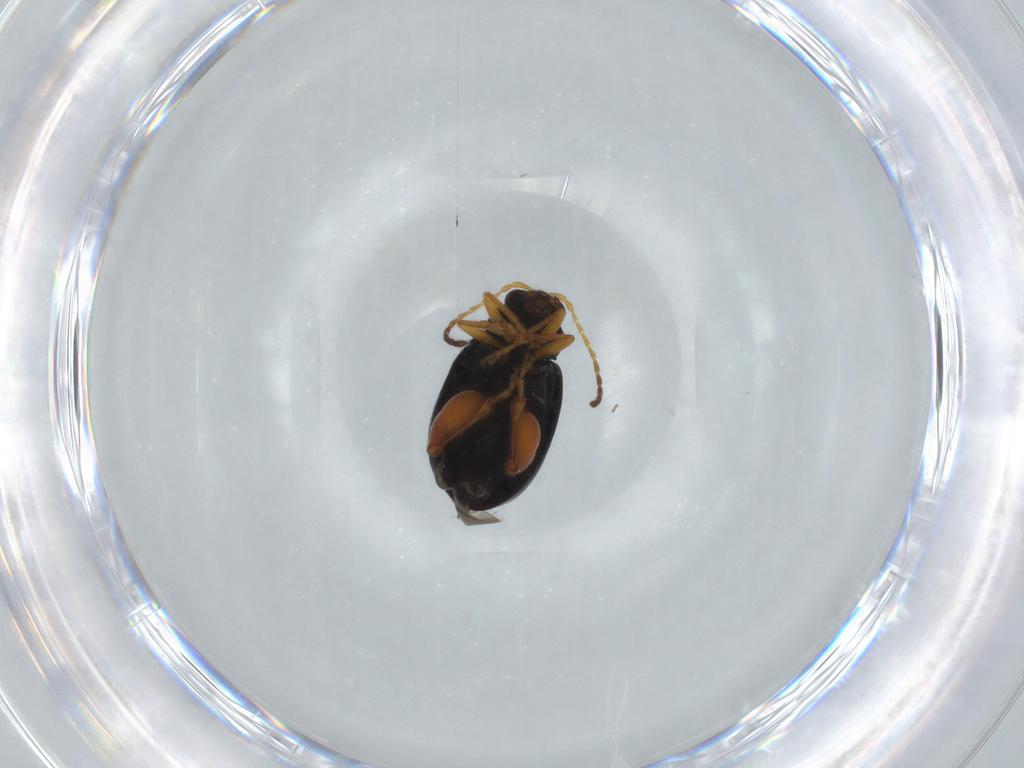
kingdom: Animalia
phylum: Arthropoda
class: Insecta
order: Coleoptera
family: Chrysomelidae
